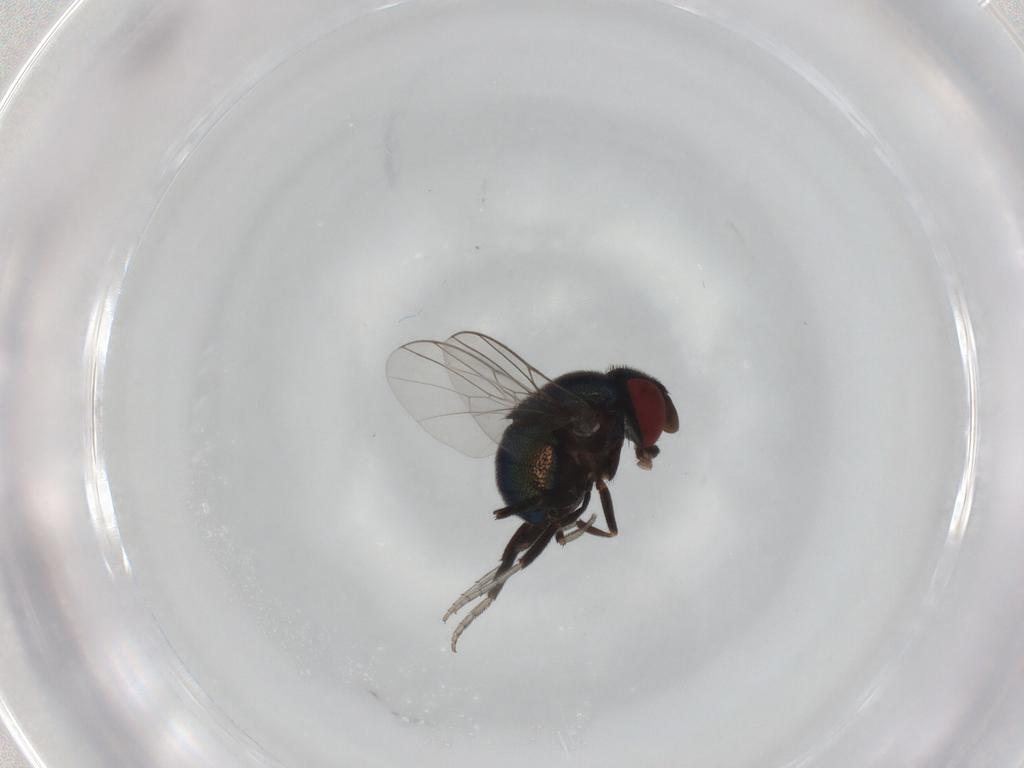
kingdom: Animalia
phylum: Arthropoda
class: Insecta
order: Diptera
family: Cryptochetidae
